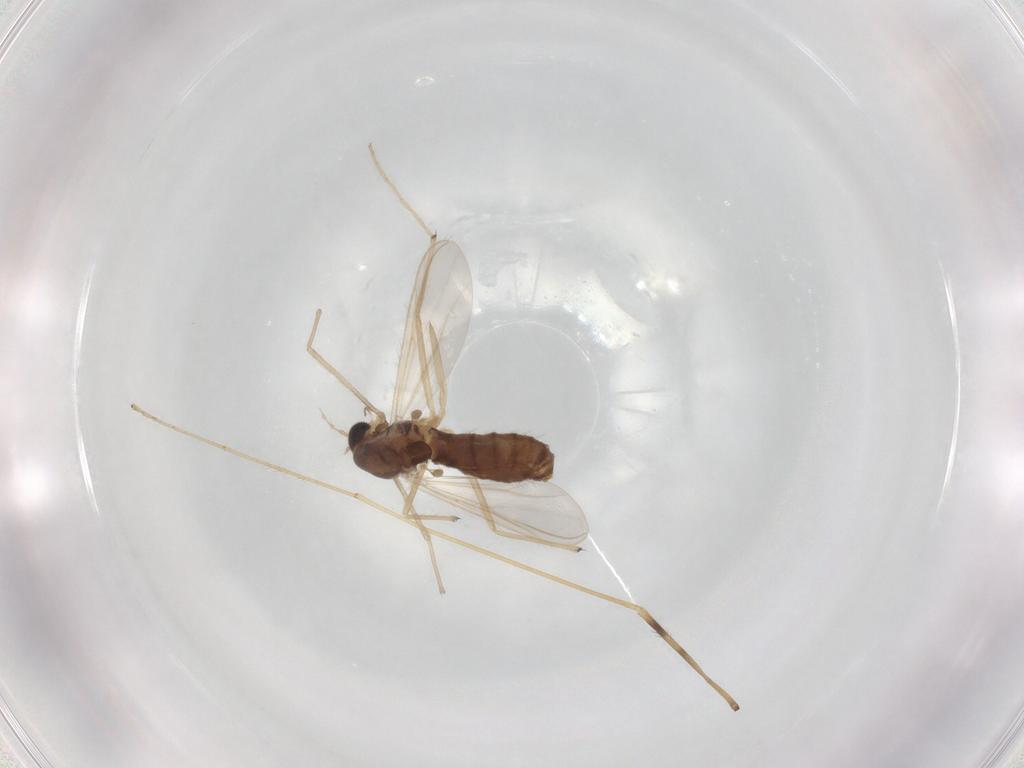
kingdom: Animalia
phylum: Arthropoda
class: Insecta
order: Diptera
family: Chironomidae
